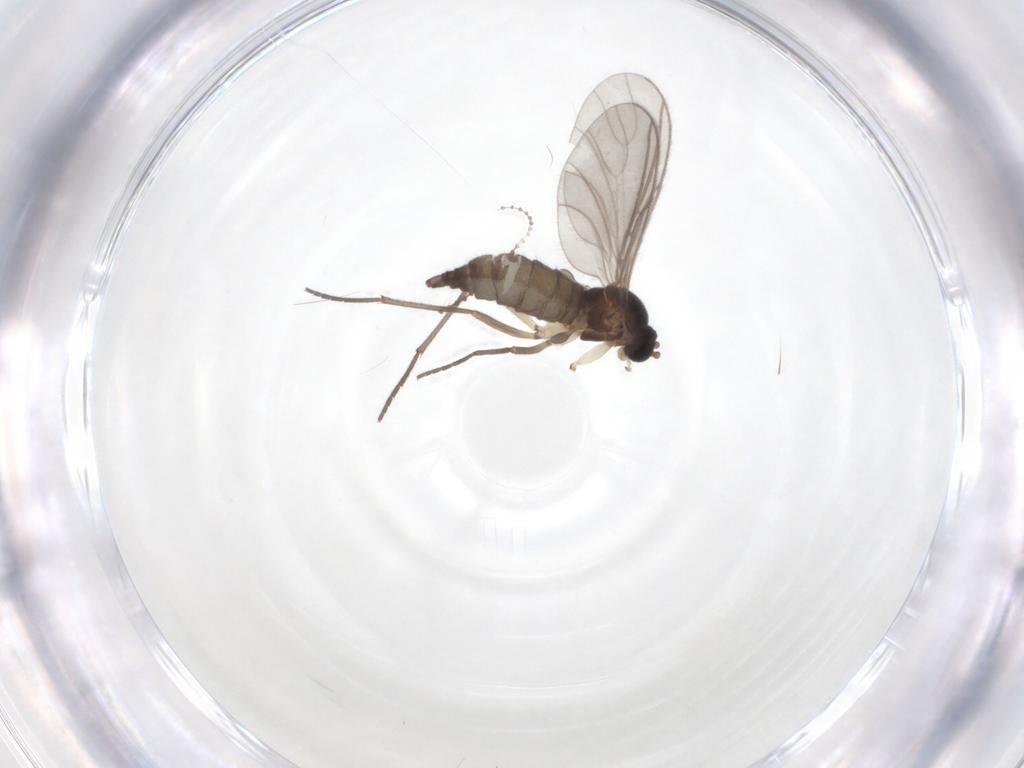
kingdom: Animalia
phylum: Arthropoda
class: Insecta
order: Diptera
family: Sciaridae
